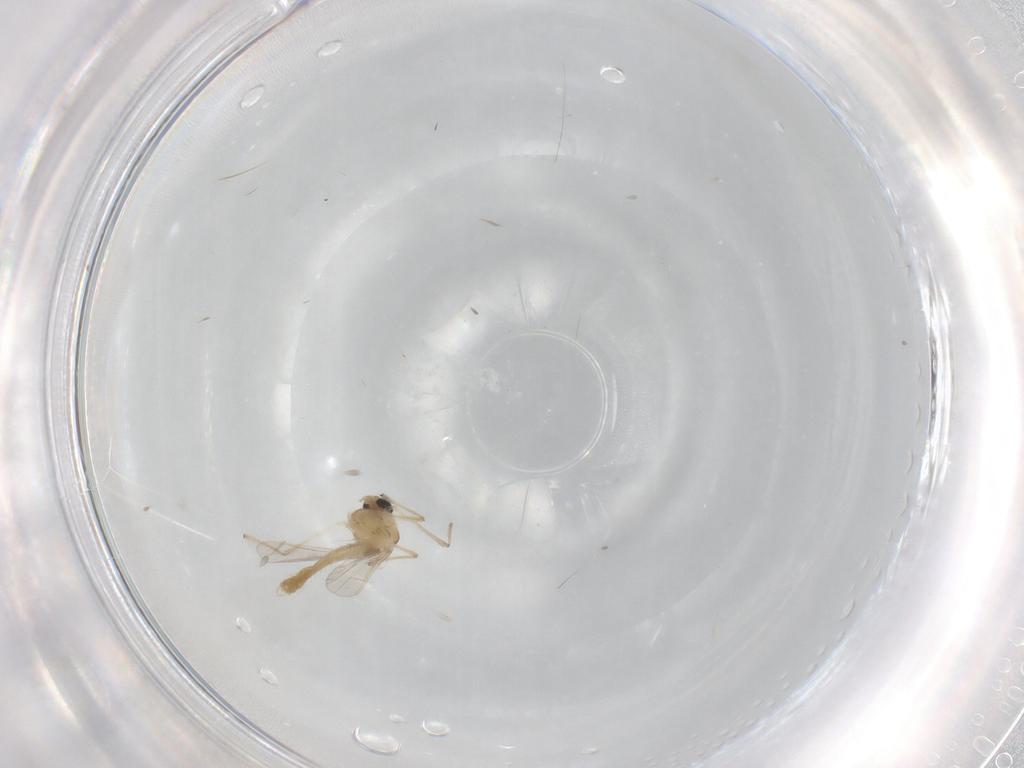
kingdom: Animalia
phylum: Arthropoda
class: Insecta
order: Diptera
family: Chironomidae
